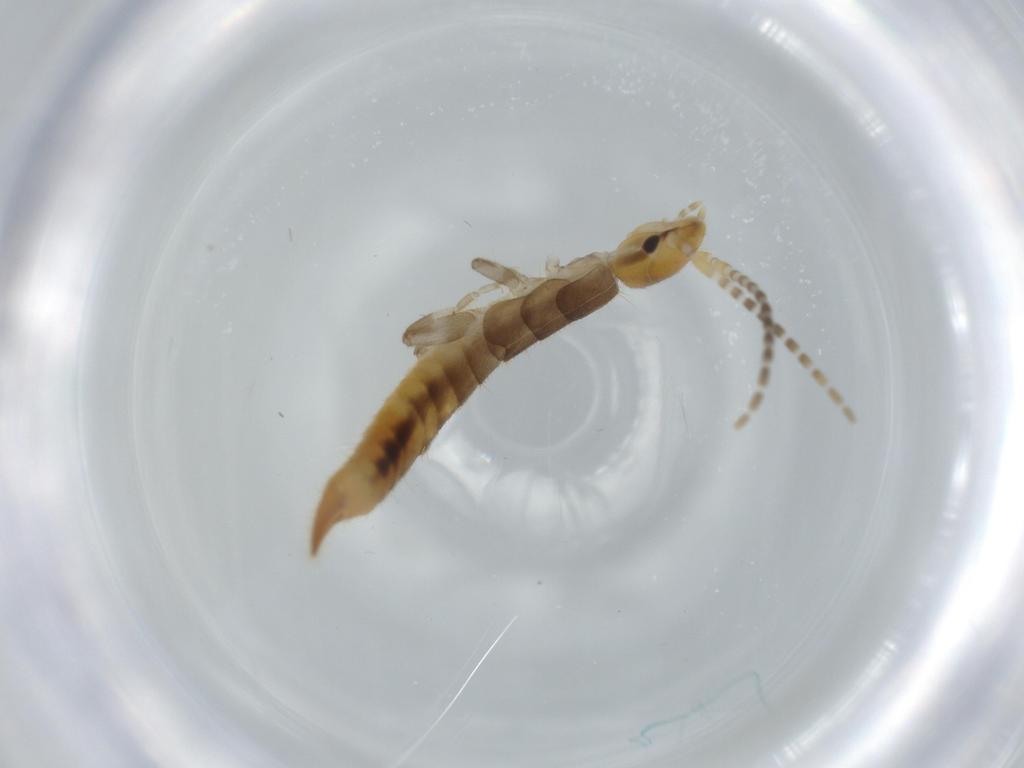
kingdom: Animalia
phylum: Arthropoda
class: Insecta
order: Dermaptera
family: Forficulidae
